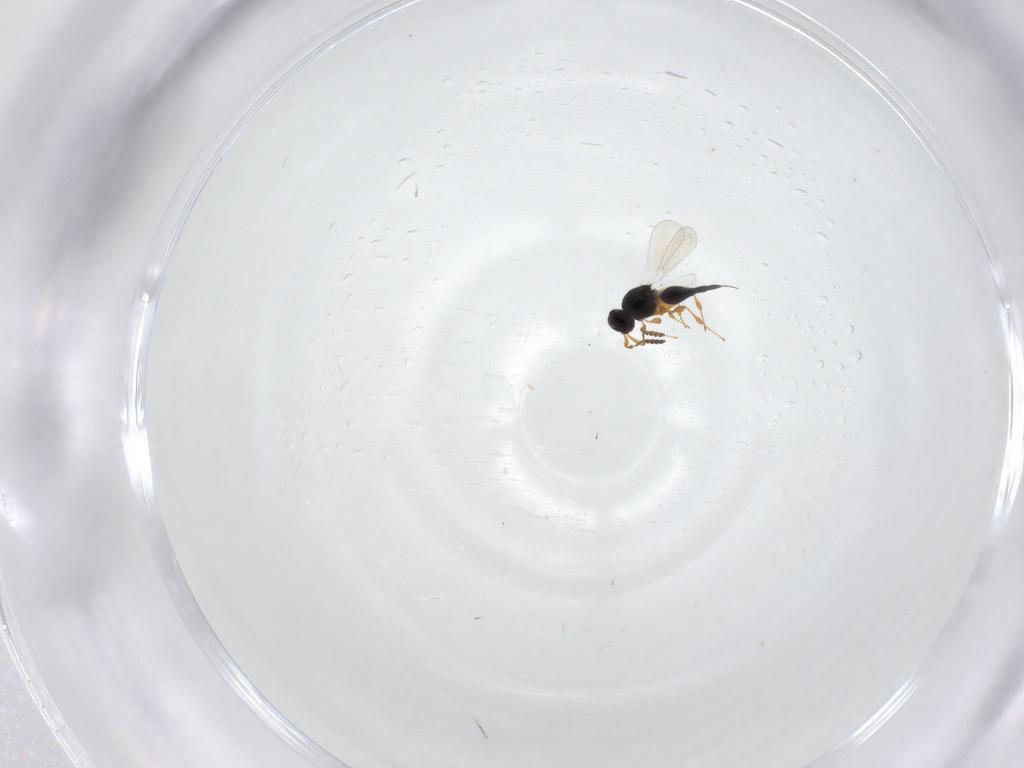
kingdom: Animalia
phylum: Arthropoda
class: Insecta
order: Hymenoptera
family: Platygastridae
